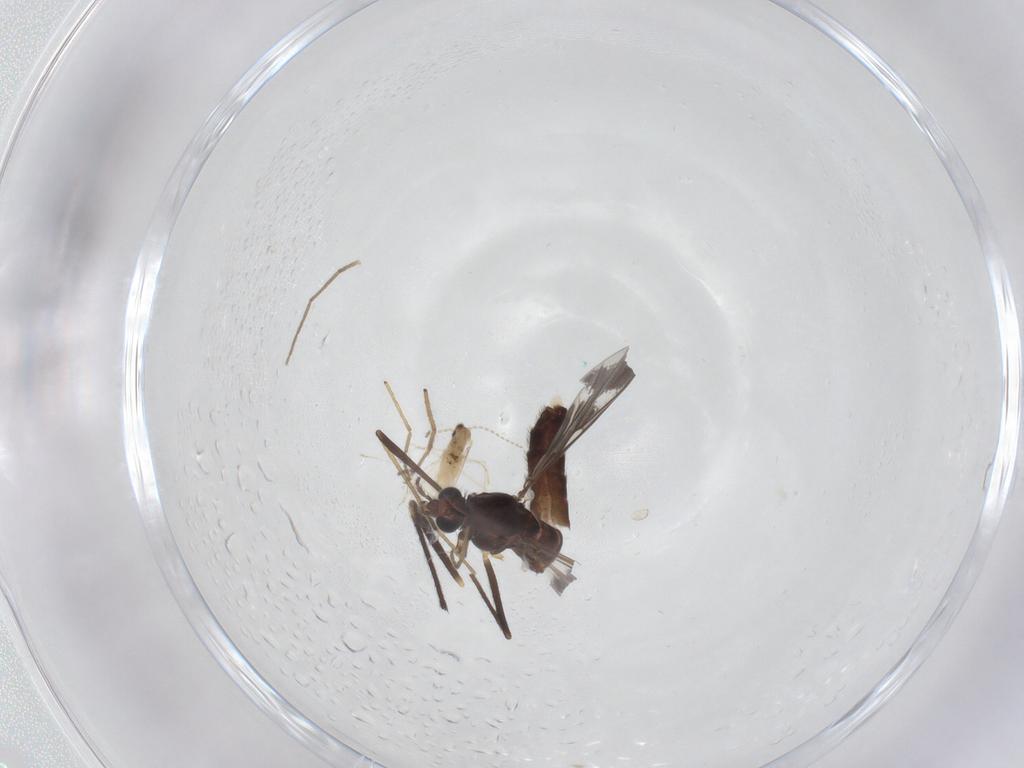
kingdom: Animalia
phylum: Arthropoda
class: Insecta
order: Diptera
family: Chironomidae
